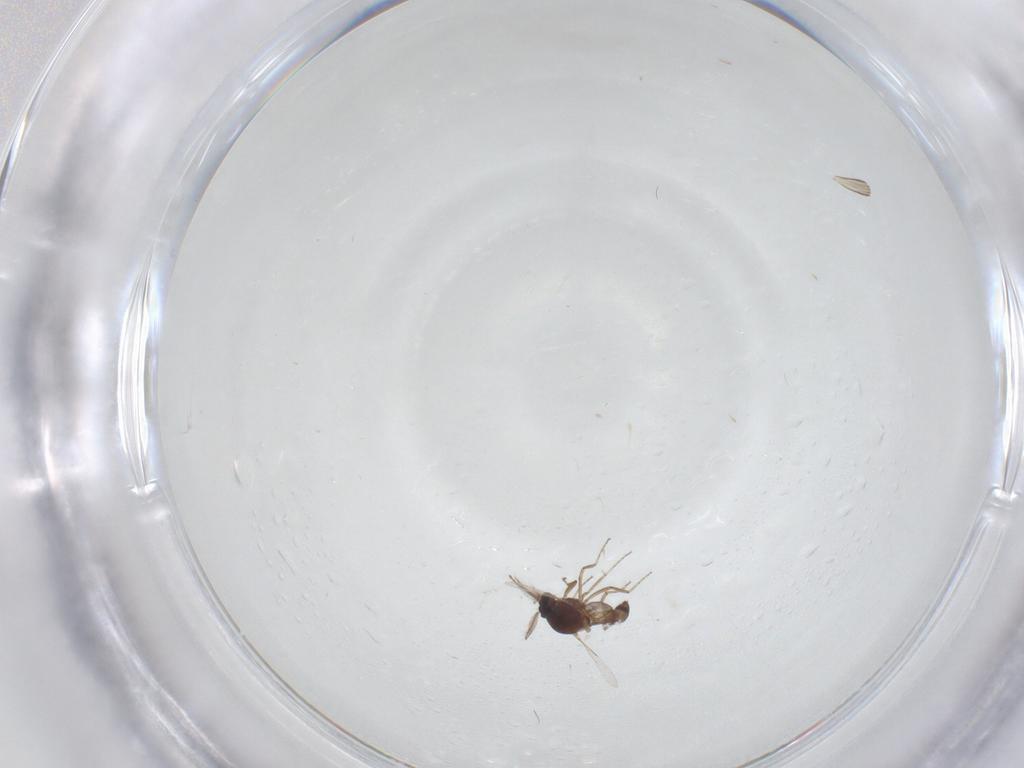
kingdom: Animalia
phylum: Arthropoda
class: Insecta
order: Diptera
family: Ceratopogonidae
